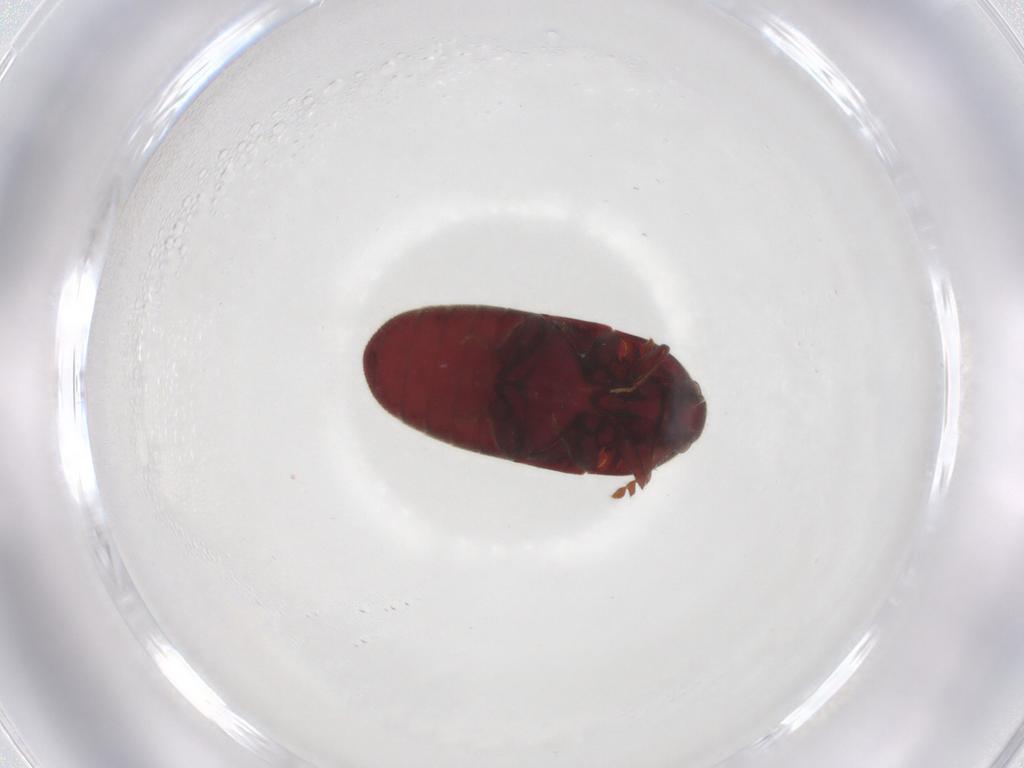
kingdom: Animalia
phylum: Arthropoda
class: Insecta
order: Coleoptera
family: Throscidae
